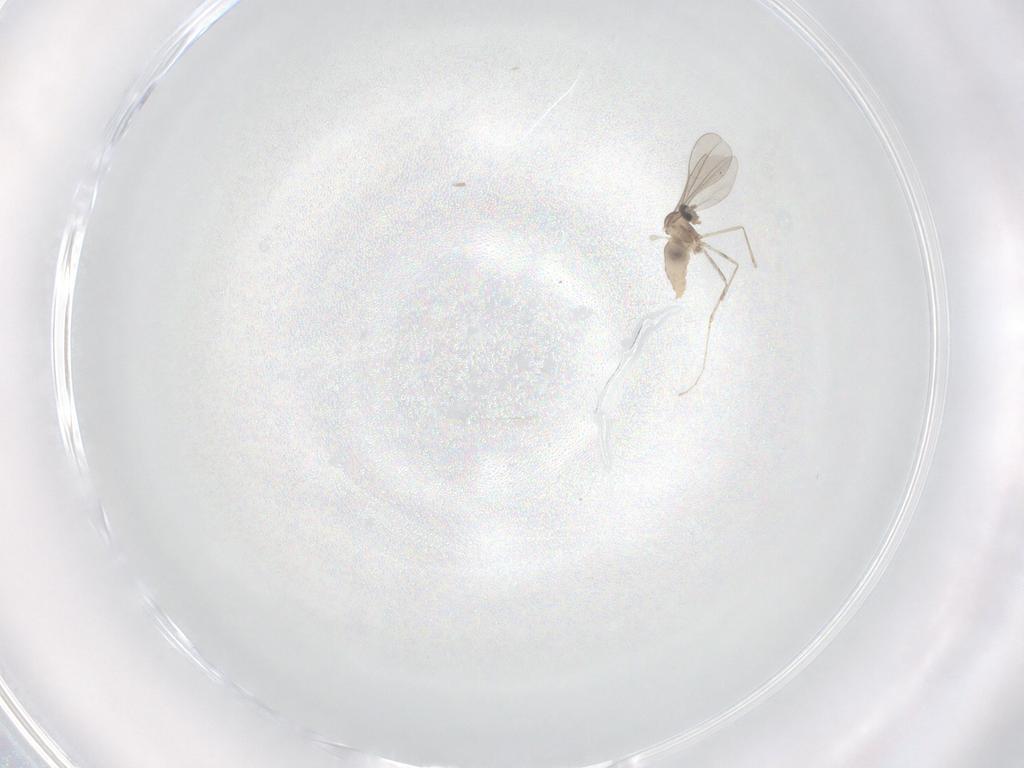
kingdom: Animalia
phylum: Arthropoda
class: Insecta
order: Diptera
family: Cecidomyiidae
